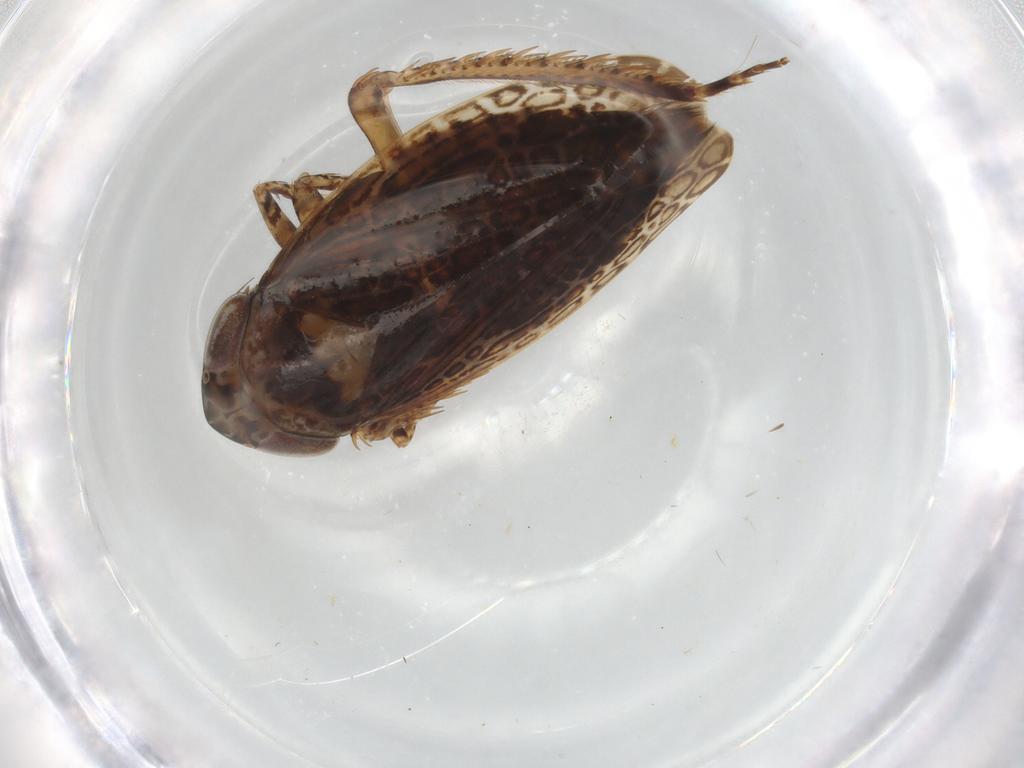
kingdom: Animalia
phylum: Arthropoda
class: Insecta
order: Hemiptera
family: Cicadellidae
